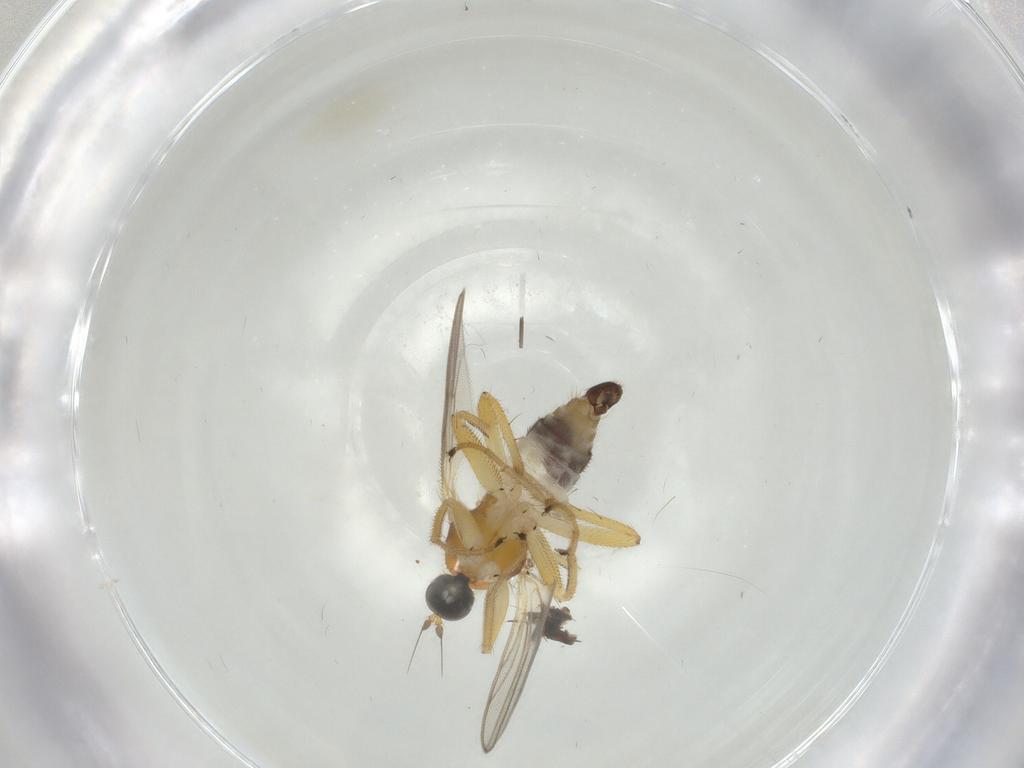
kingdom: Animalia
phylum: Arthropoda
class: Insecta
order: Diptera
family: Hybotidae
